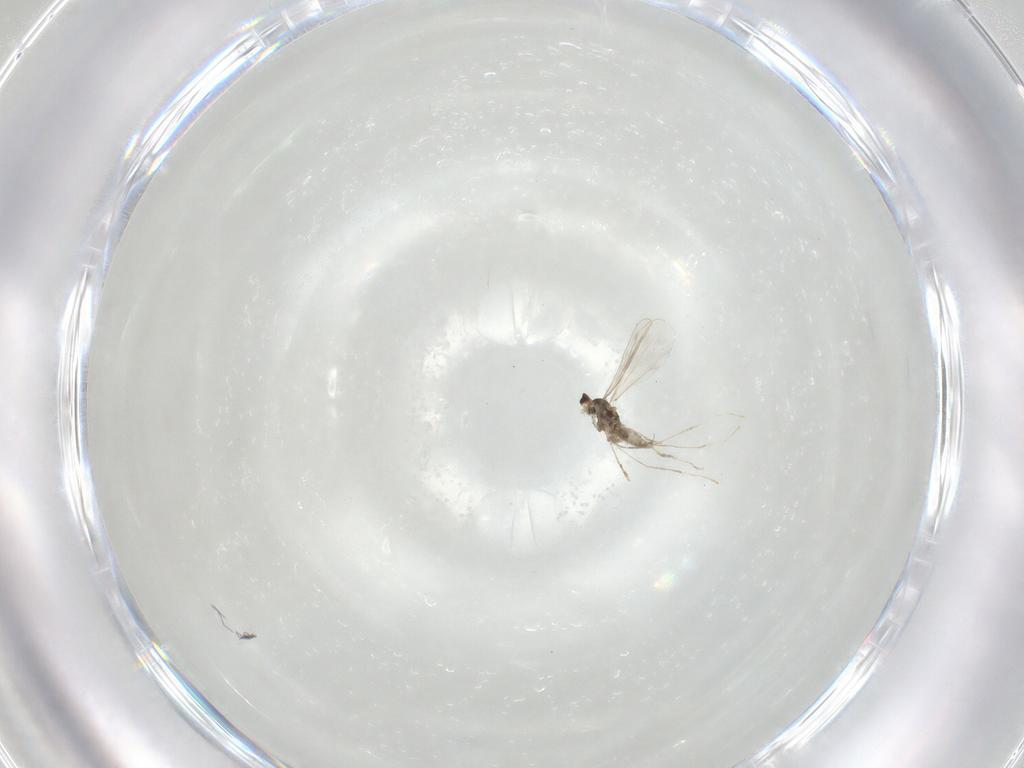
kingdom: Animalia
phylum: Arthropoda
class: Insecta
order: Diptera
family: Cecidomyiidae
